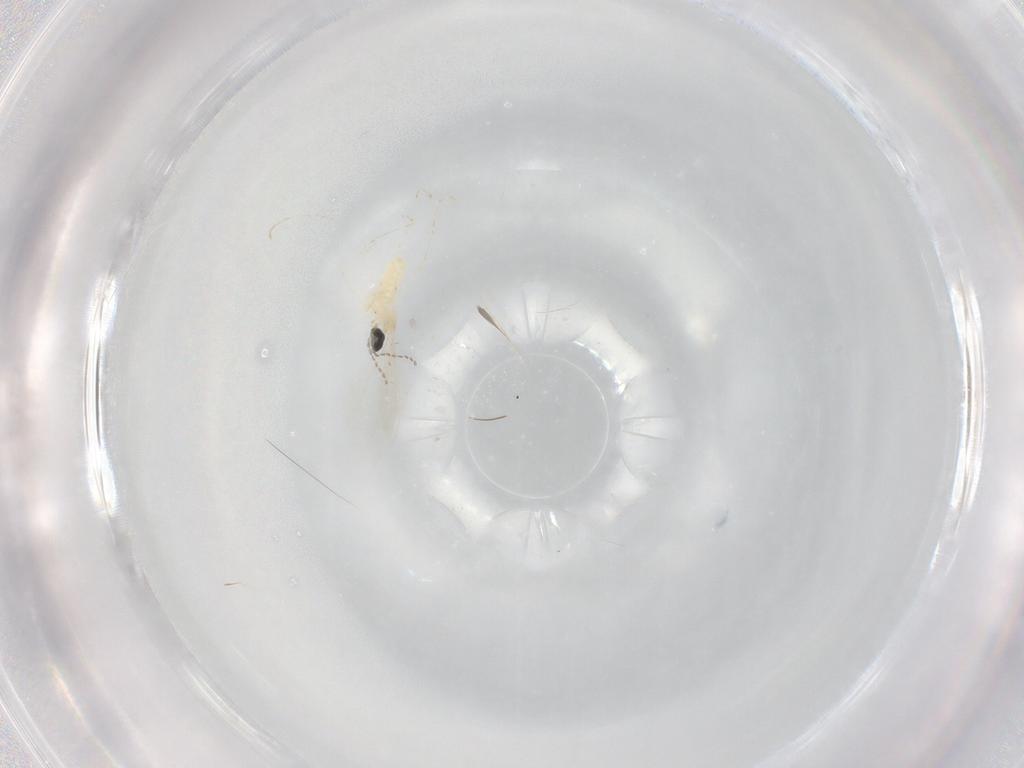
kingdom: Animalia
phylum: Arthropoda
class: Insecta
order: Diptera
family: Cecidomyiidae
